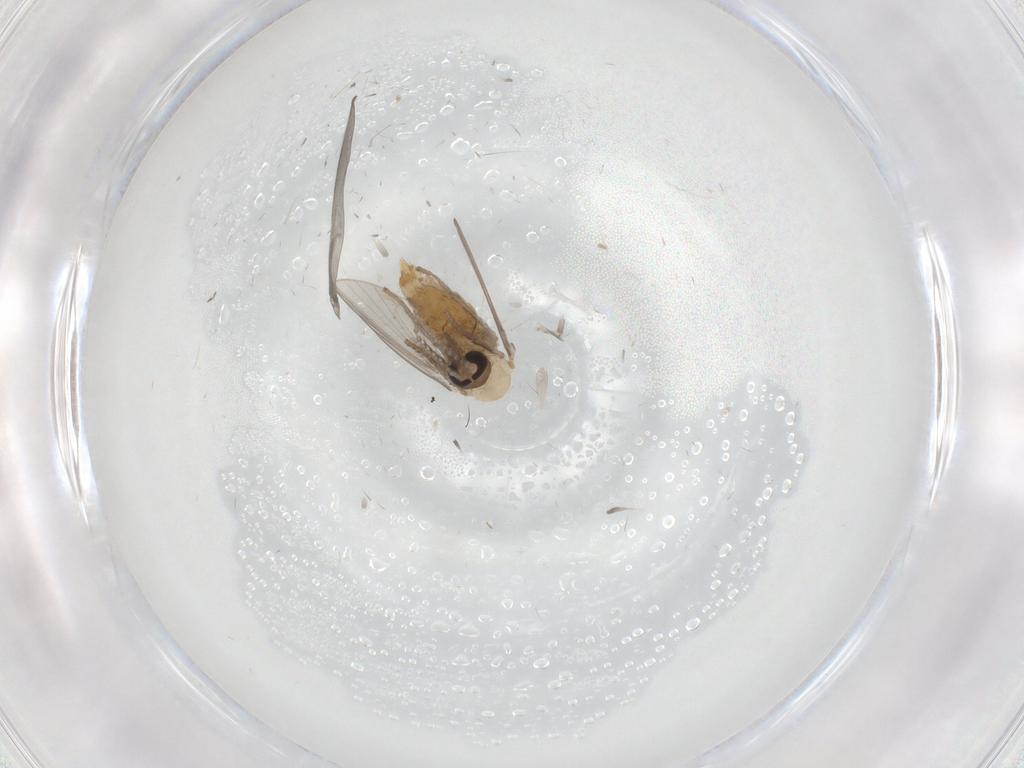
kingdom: Animalia
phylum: Arthropoda
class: Insecta
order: Diptera
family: Psychodidae
